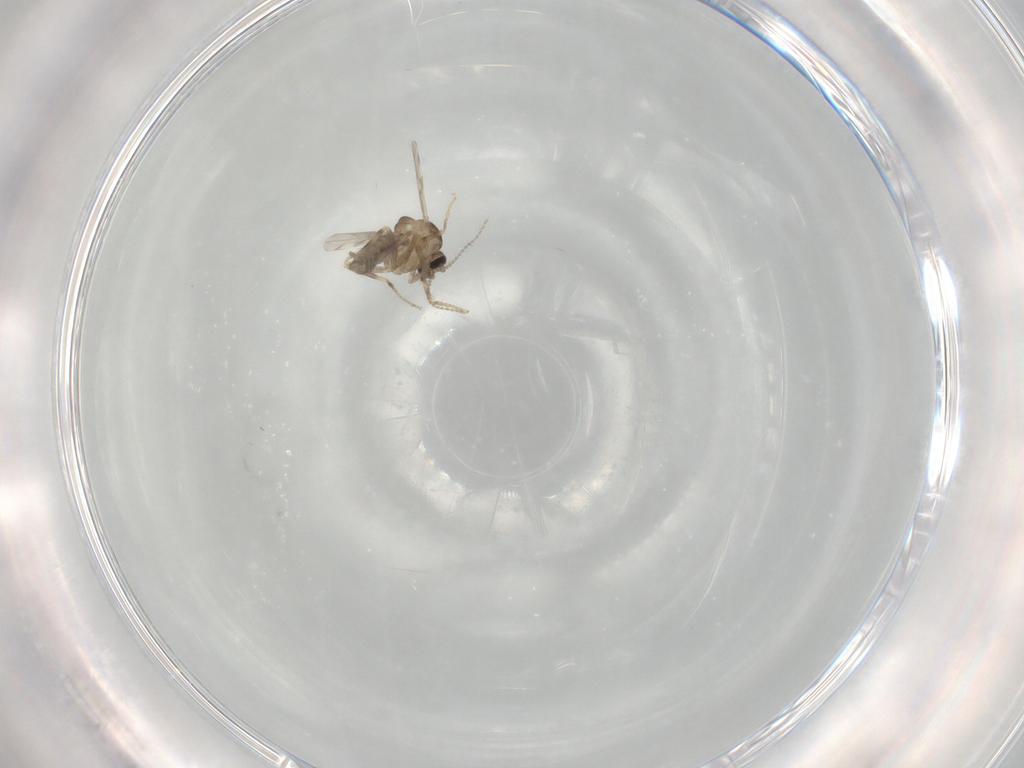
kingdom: Animalia
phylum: Arthropoda
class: Insecta
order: Diptera
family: Ceratopogonidae
